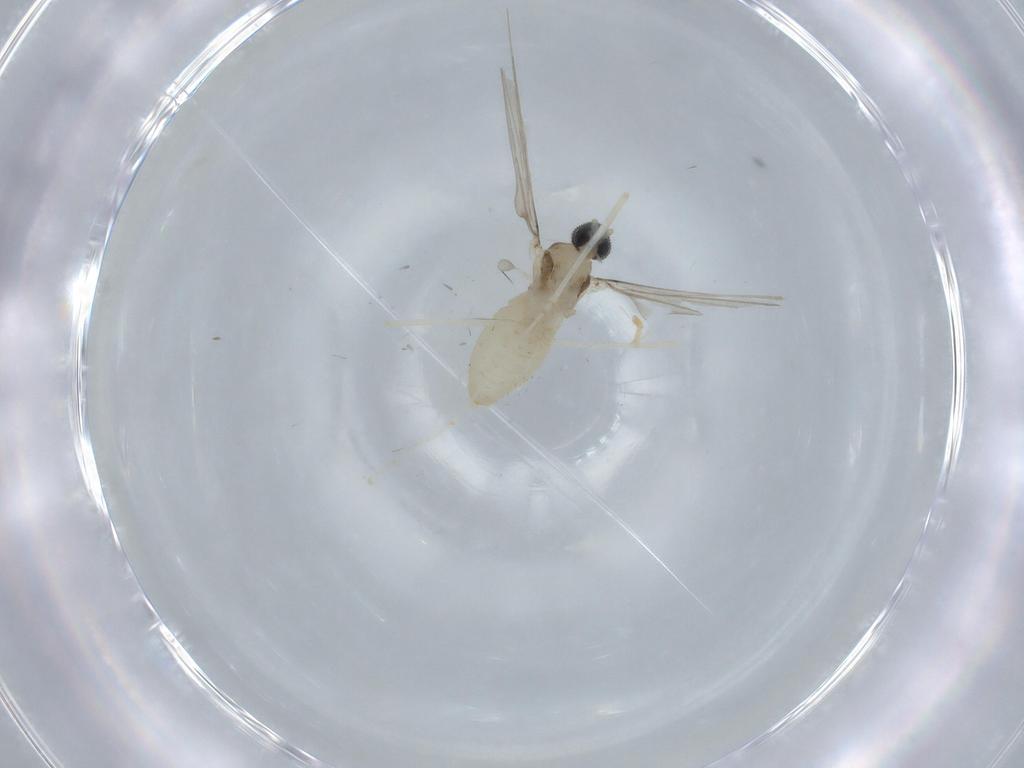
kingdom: Animalia
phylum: Arthropoda
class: Insecta
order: Diptera
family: Cecidomyiidae
